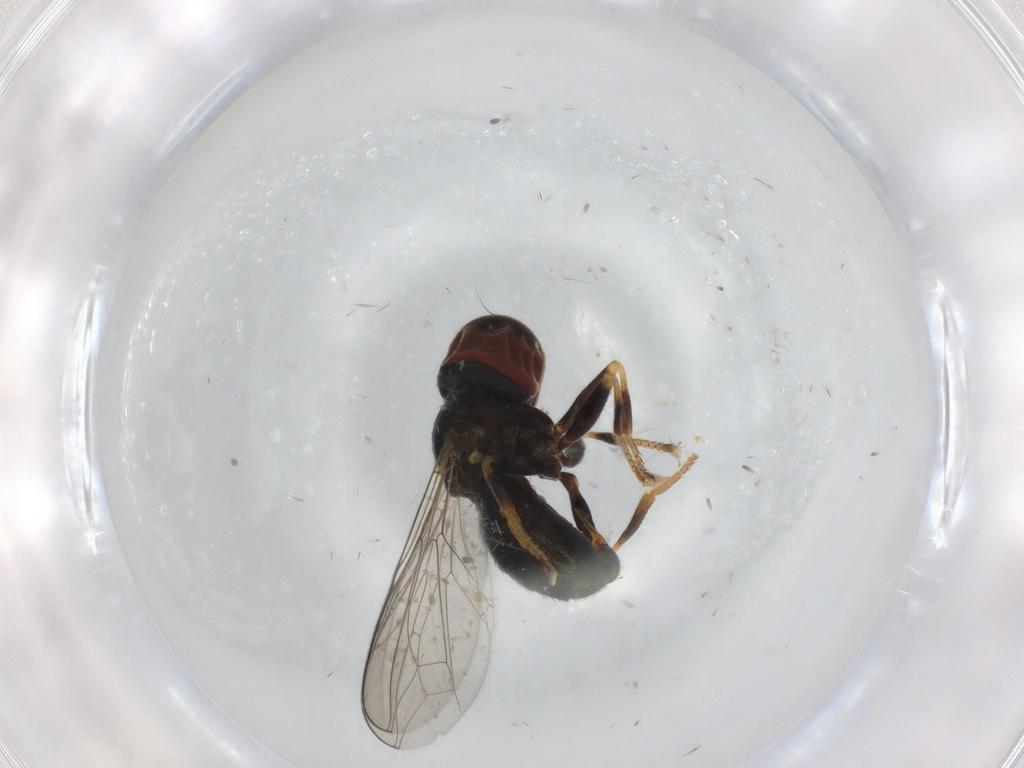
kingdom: Animalia
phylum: Arthropoda
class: Insecta
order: Diptera
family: Pipunculidae
